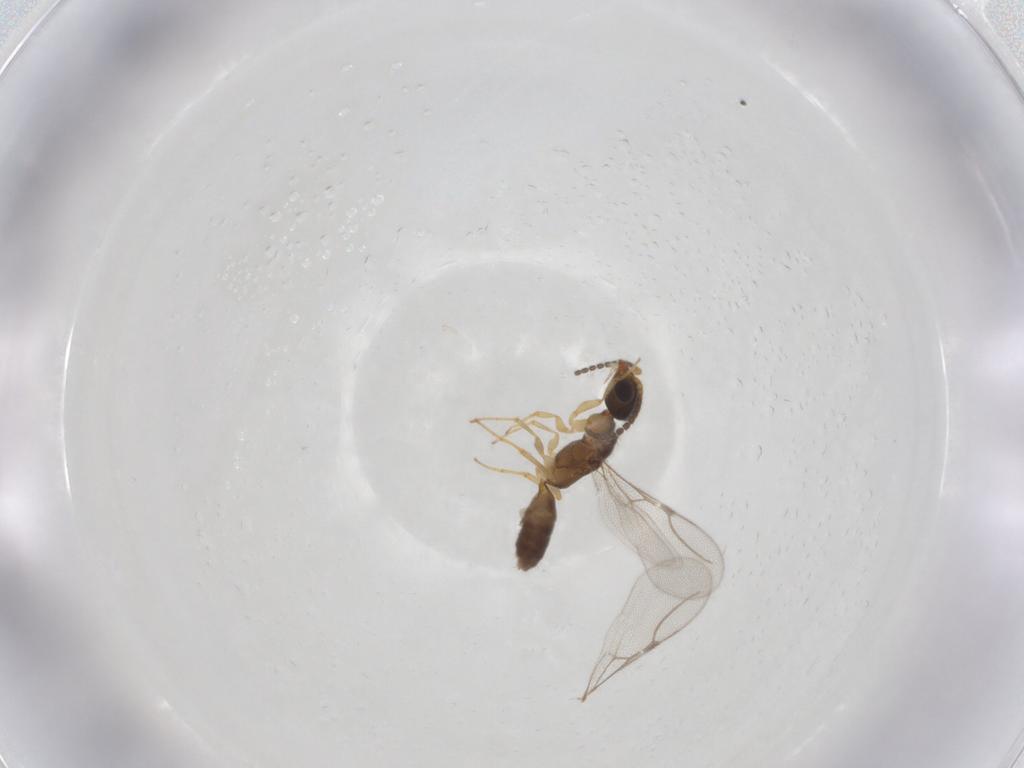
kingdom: Animalia
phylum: Arthropoda
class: Insecta
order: Hymenoptera
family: Bethylidae
